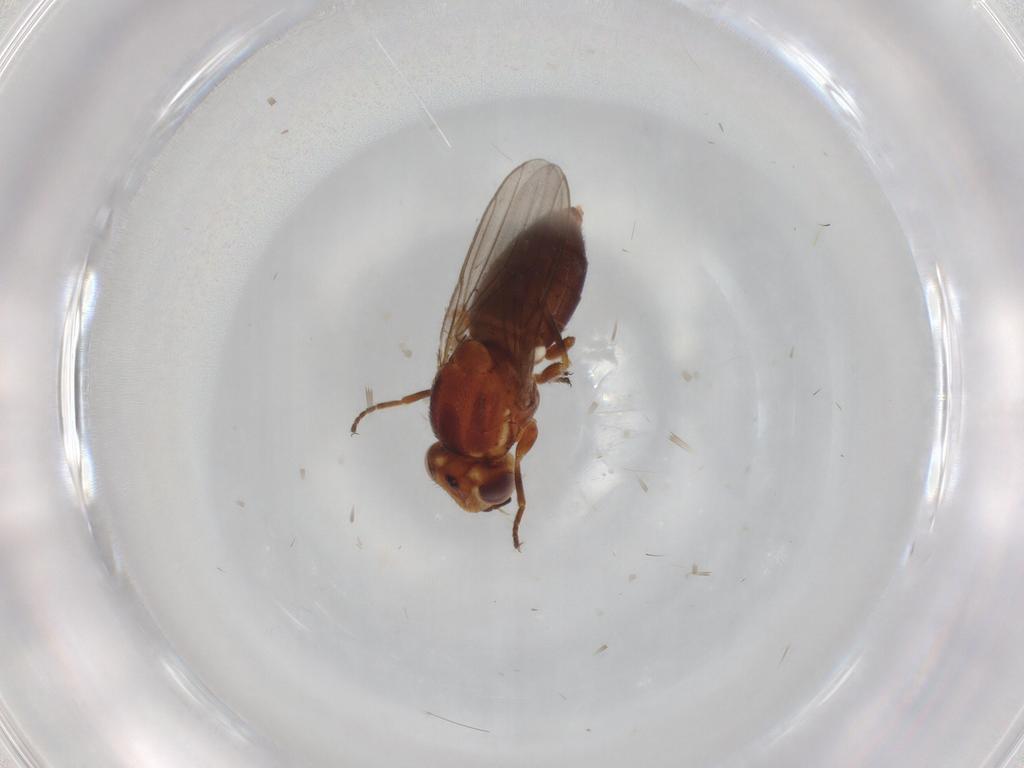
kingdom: Animalia
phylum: Arthropoda
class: Insecta
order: Diptera
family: Chloropidae
